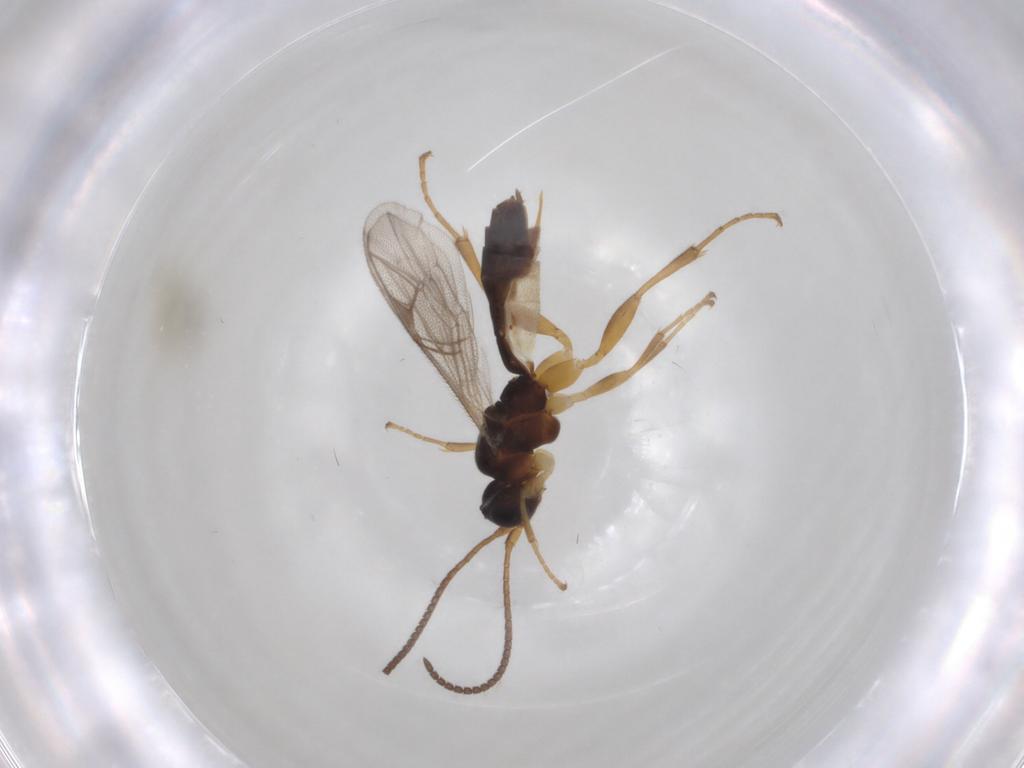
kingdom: Animalia
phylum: Arthropoda
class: Insecta
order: Hymenoptera
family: Ichneumonidae
